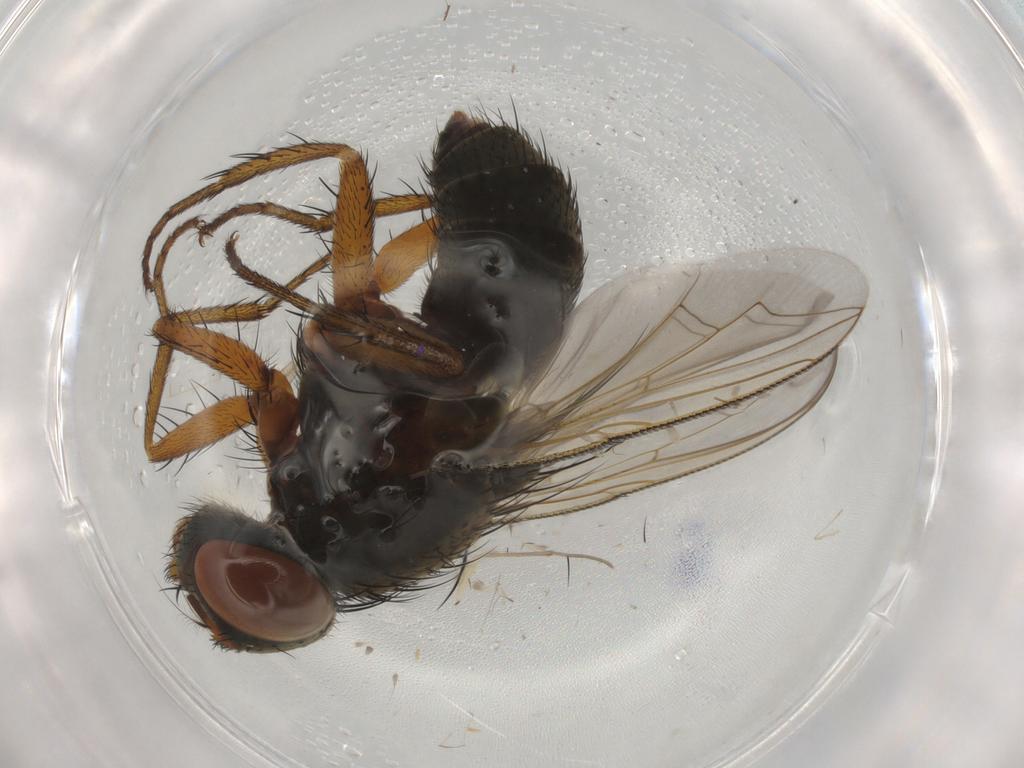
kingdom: Animalia
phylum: Arthropoda
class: Insecta
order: Diptera
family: Sarcophagidae
